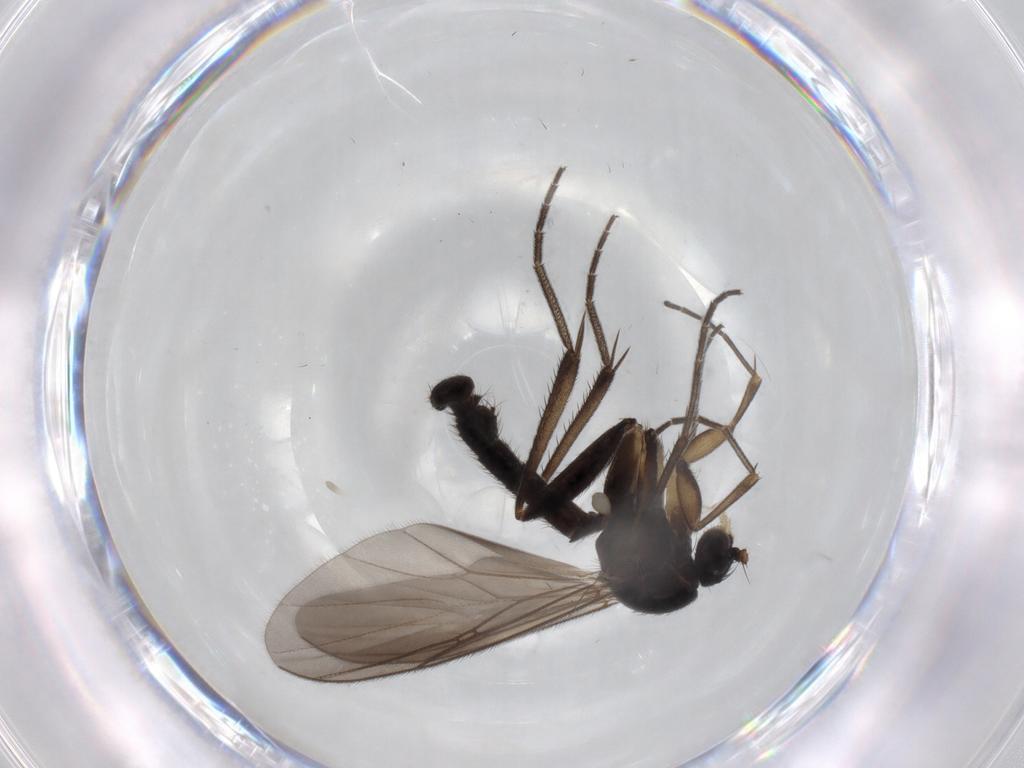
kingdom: Animalia
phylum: Arthropoda
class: Insecta
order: Diptera
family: Mycetophilidae
